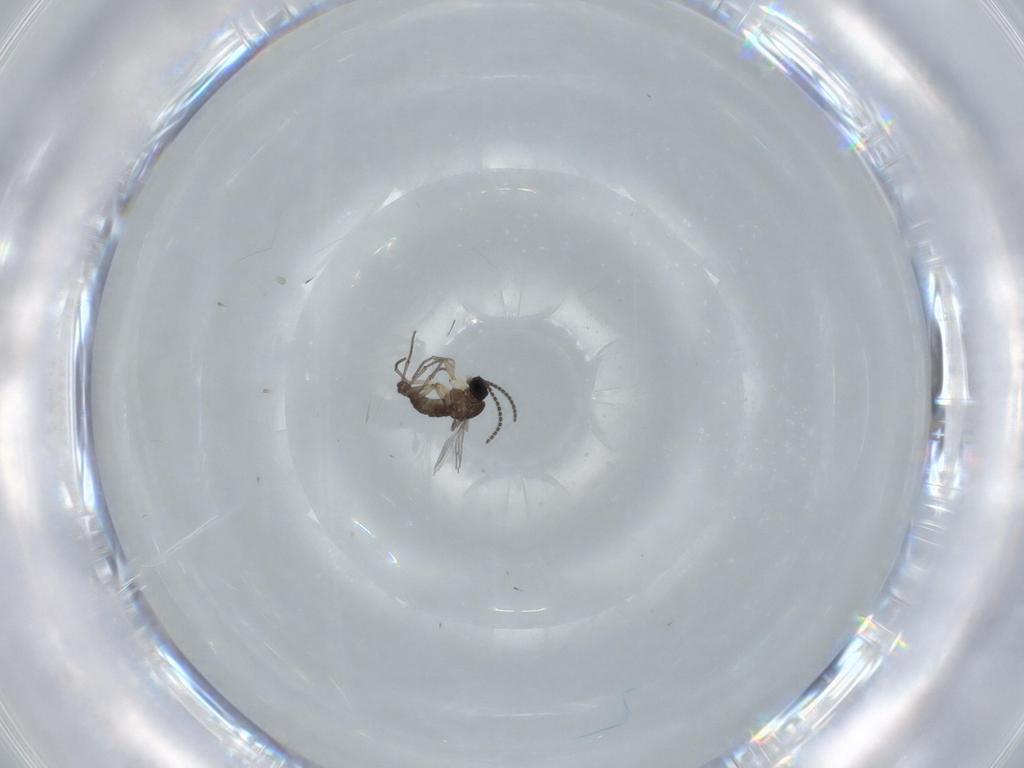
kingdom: Animalia
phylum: Arthropoda
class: Insecta
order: Diptera
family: Sciaridae
